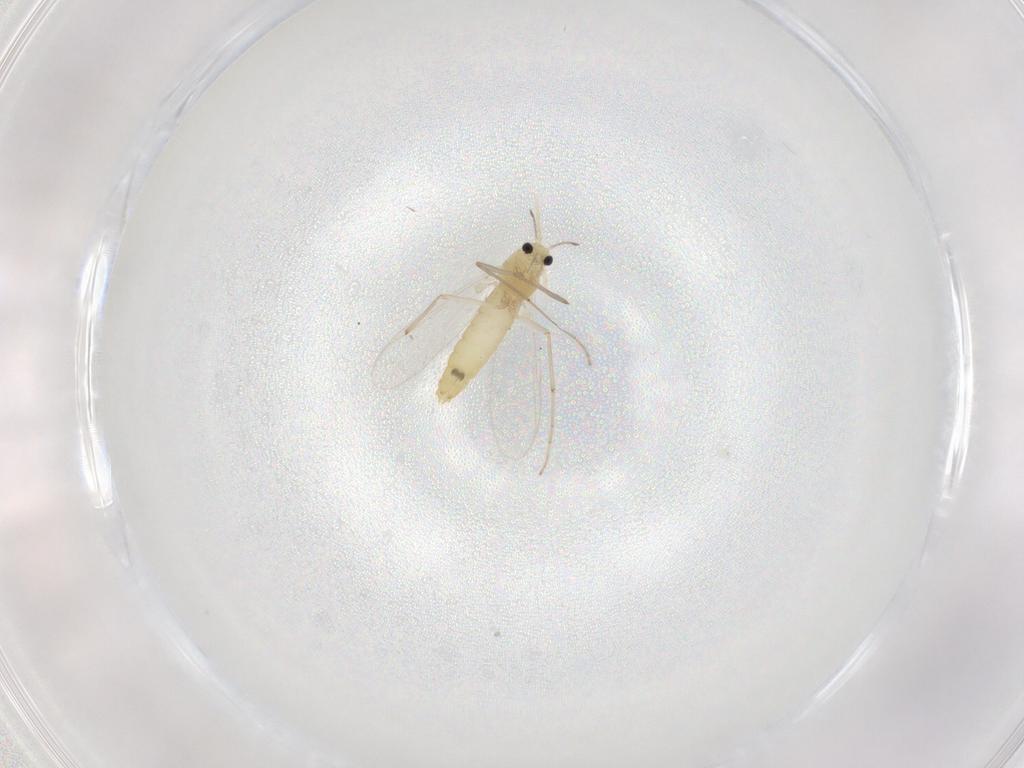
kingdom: Animalia
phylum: Arthropoda
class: Insecta
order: Diptera
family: Chironomidae
